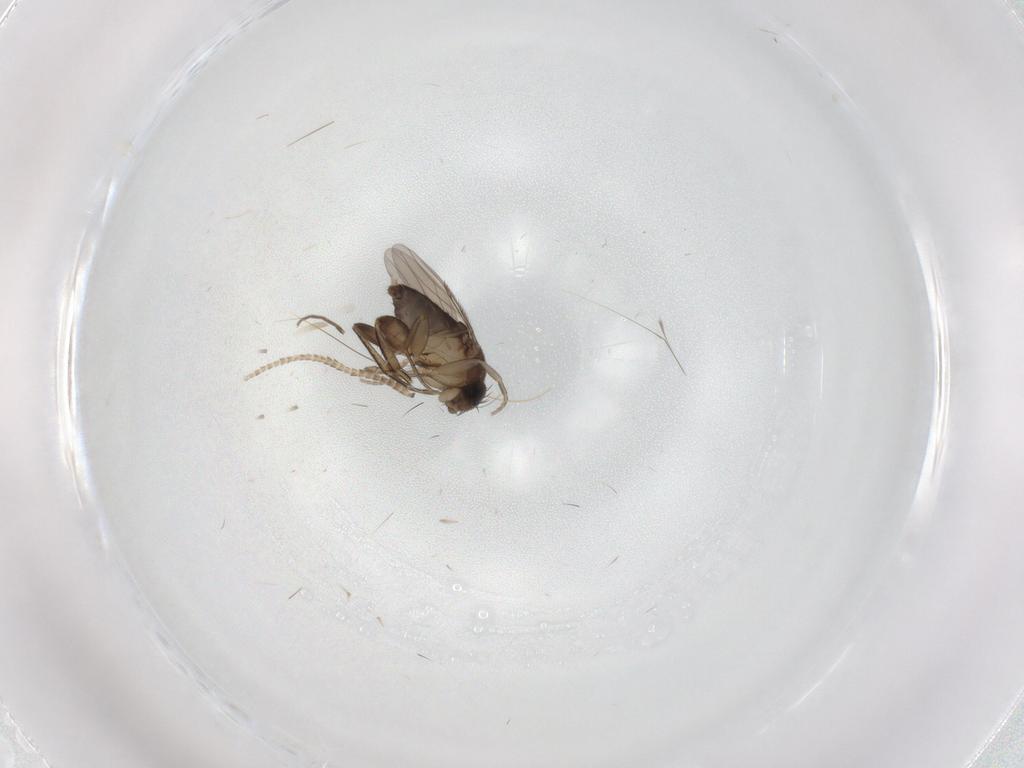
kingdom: Animalia
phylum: Arthropoda
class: Insecta
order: Diptera
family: Phoridae
